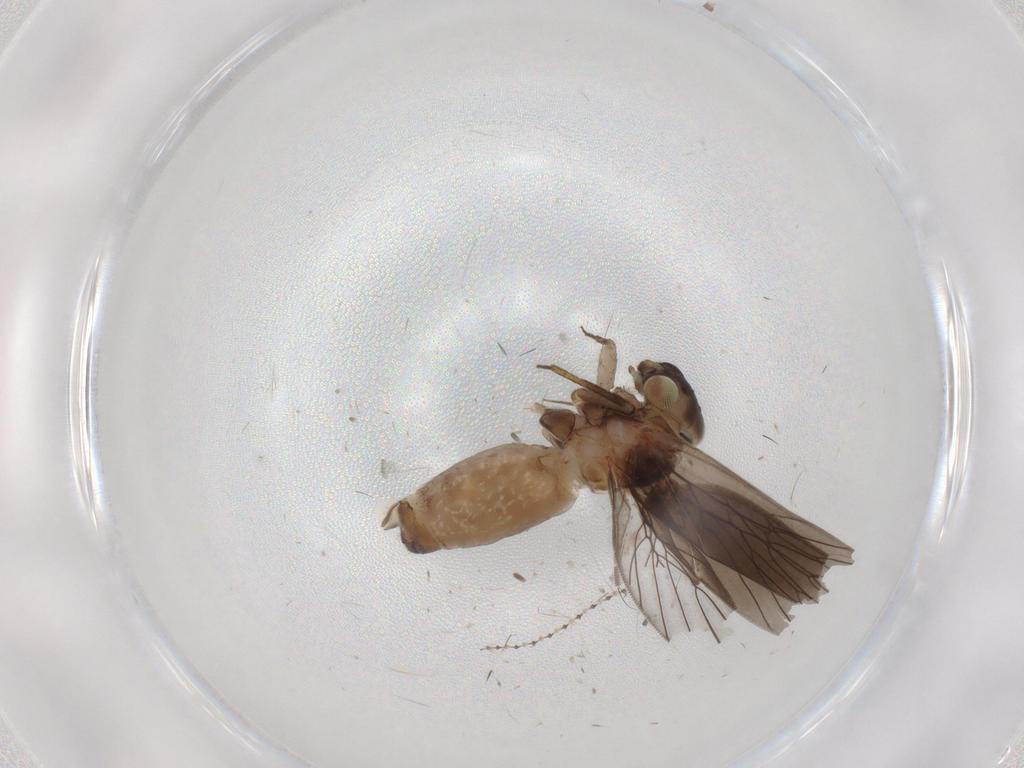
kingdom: Animalia
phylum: Arthropoda
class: Insecta
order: Psocodea
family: Lepidopsocidae
